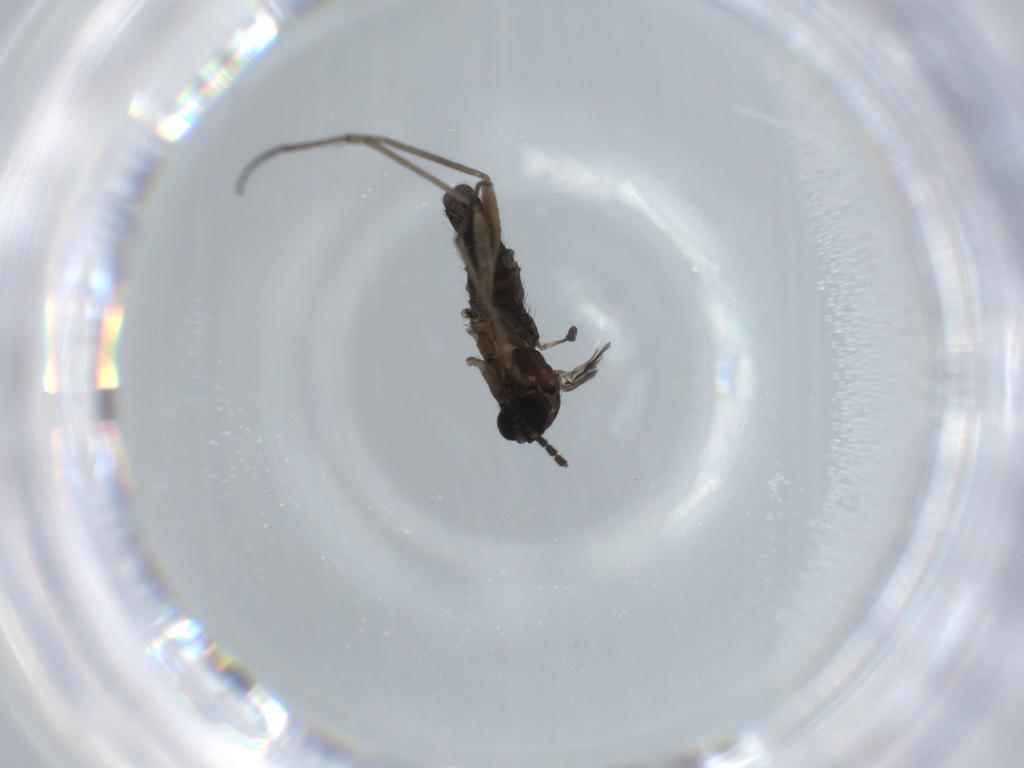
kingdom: Animalia
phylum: Arthropoda
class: Insecta
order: Diptera
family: Sciaridae
